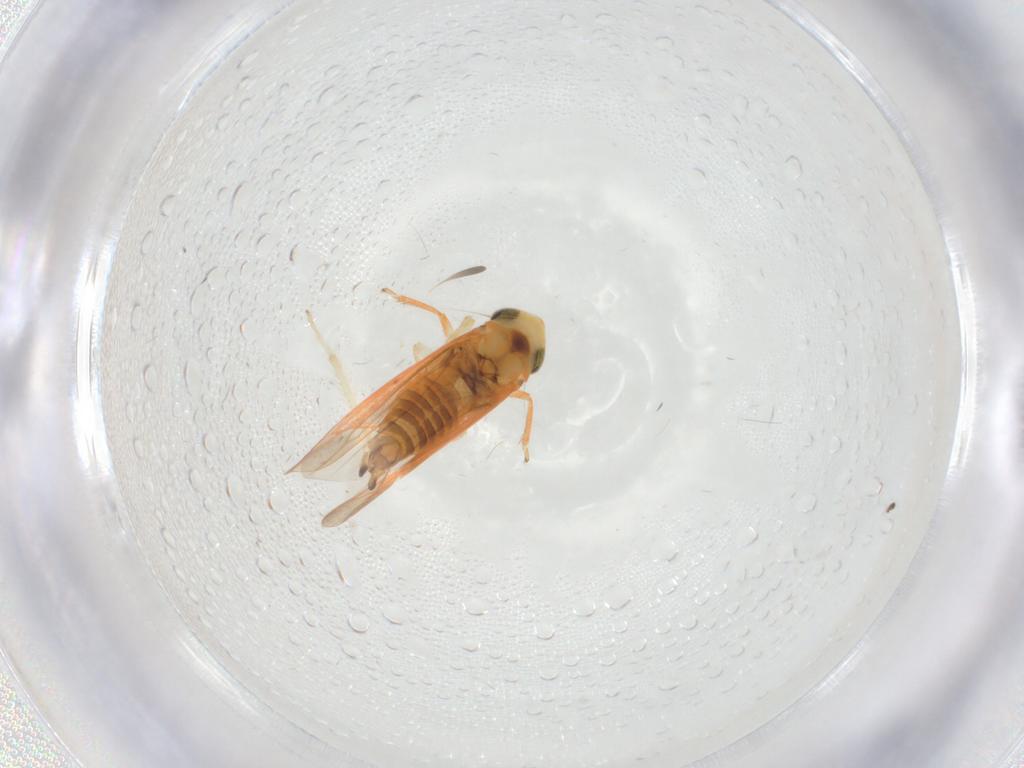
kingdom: Animalia
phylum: Arthropoda
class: Insecta
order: Hemiptera
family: Cicadellidae
